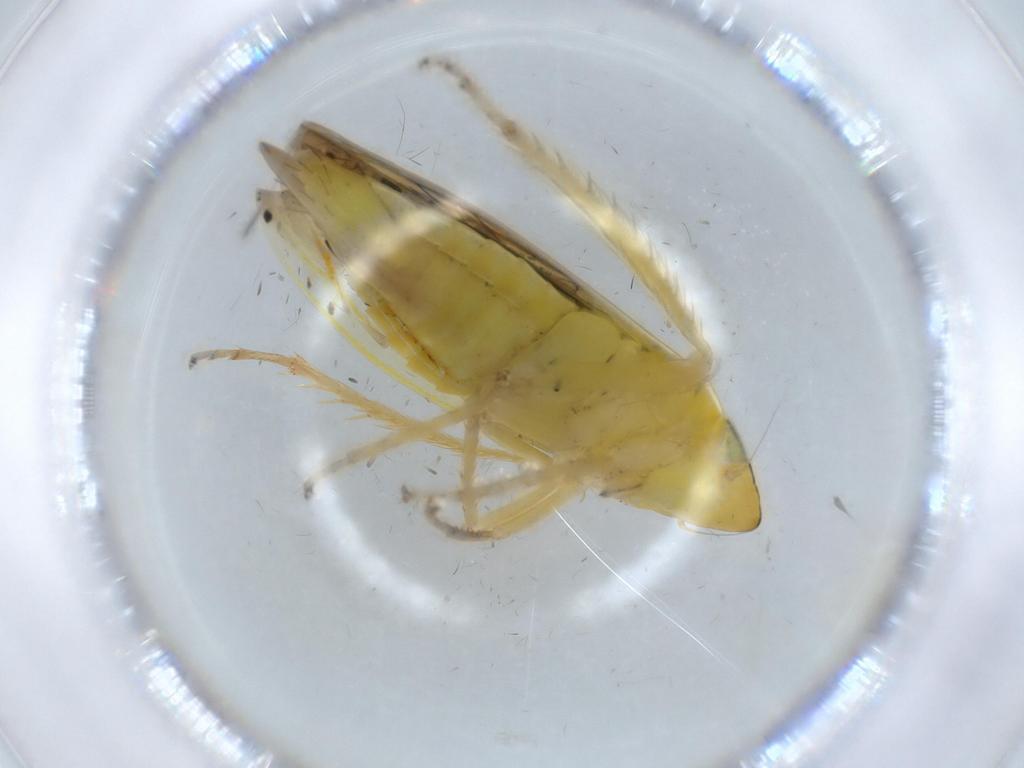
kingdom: Animalia
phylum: Arthropoda
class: Insecta
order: Hemiptera
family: Cicadellidae
